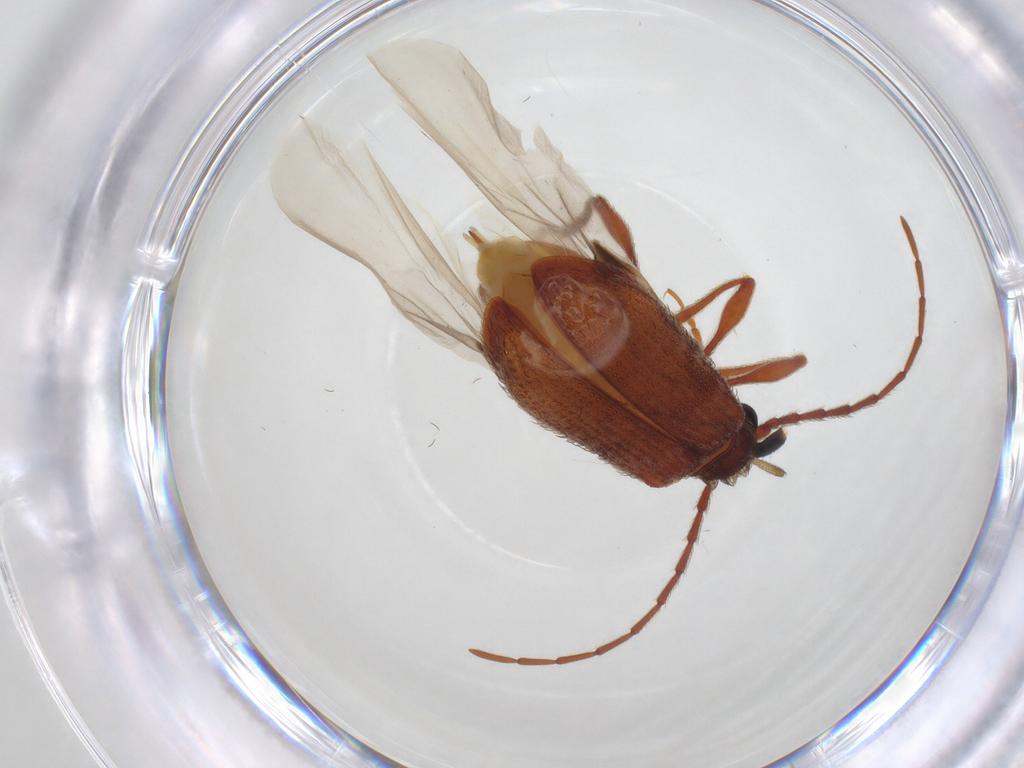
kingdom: Animalia
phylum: Arthropoda
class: Insecta
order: Coleoptera
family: Ptinidae
